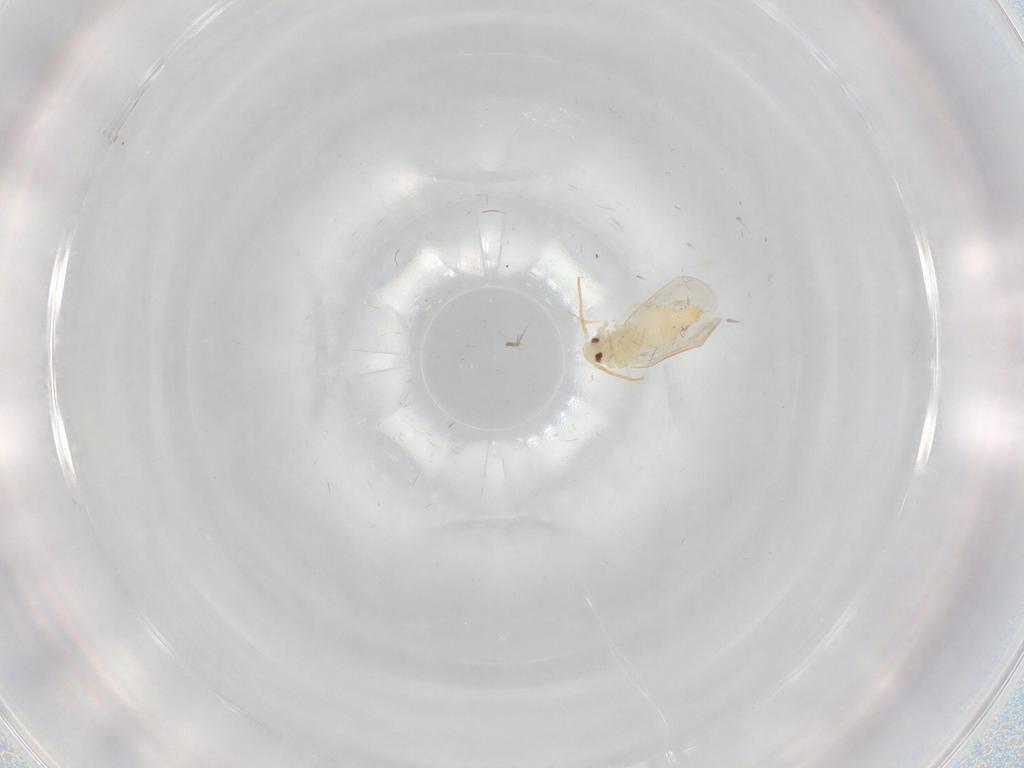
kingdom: Animalia
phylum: Arthropoda
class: Insecta
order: Hemiptera
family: Aleyrodidae
